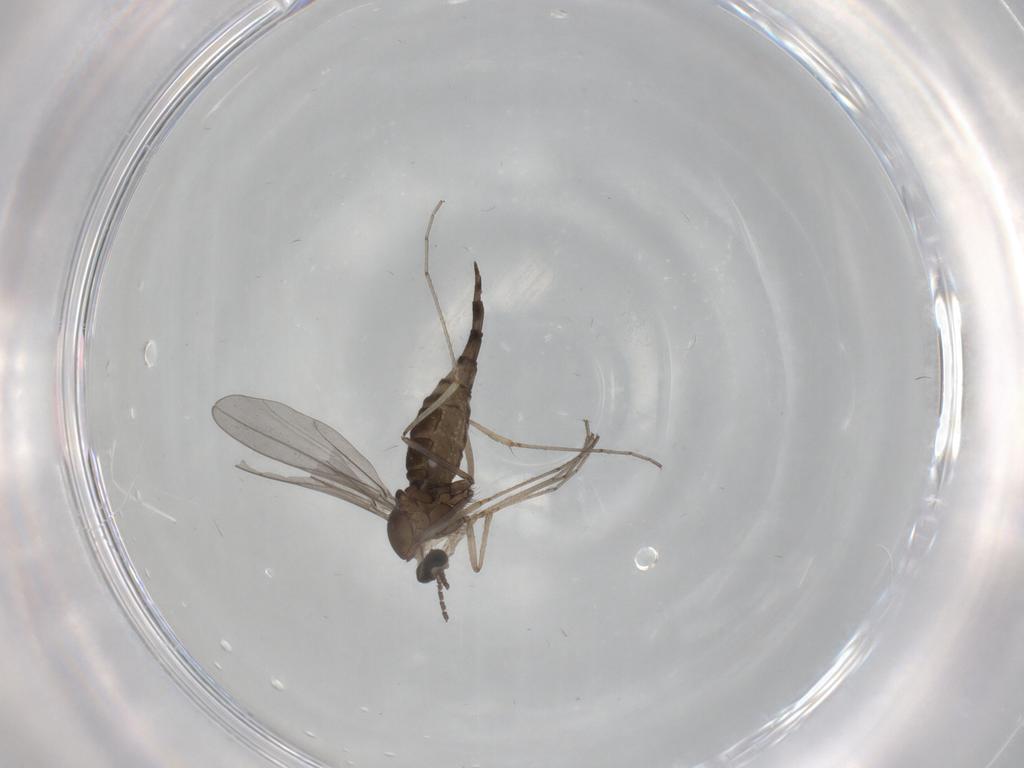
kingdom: Animalia
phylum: Arthropoda
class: Insecta
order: Diptera
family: Cecidomyiidae
